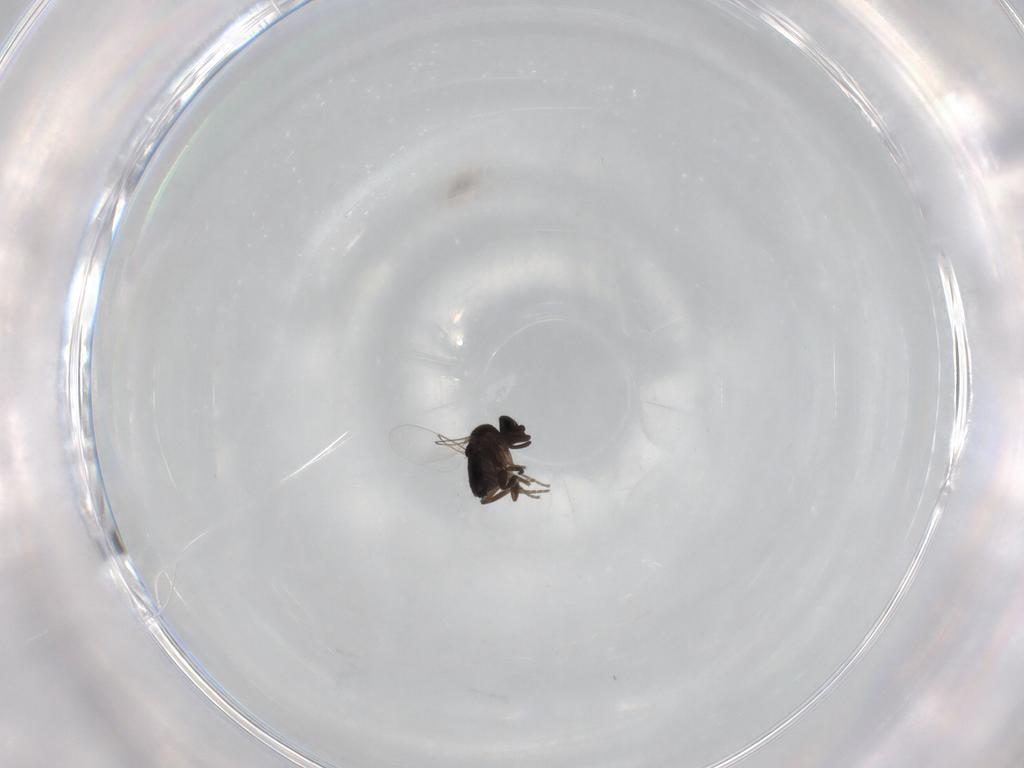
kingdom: Animalia
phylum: Arthropoda
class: Insecta
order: Diptera
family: Phoridae
